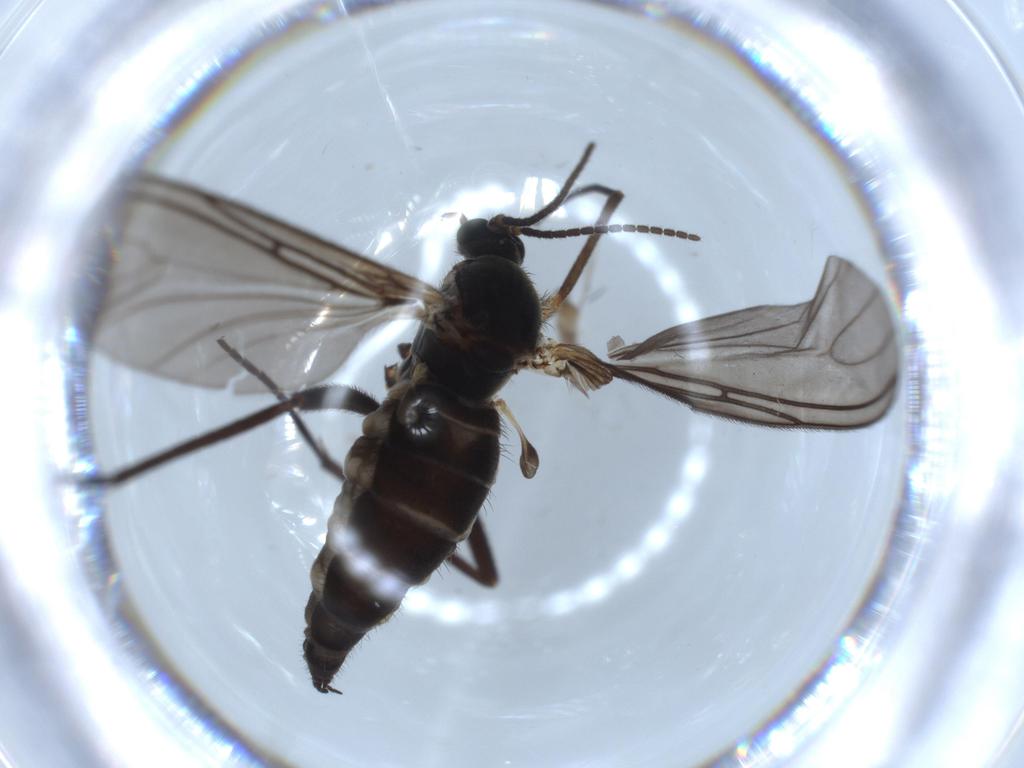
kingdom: Animalia
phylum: Arthropoda
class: Insecta
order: Diptera
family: Sciaridae
